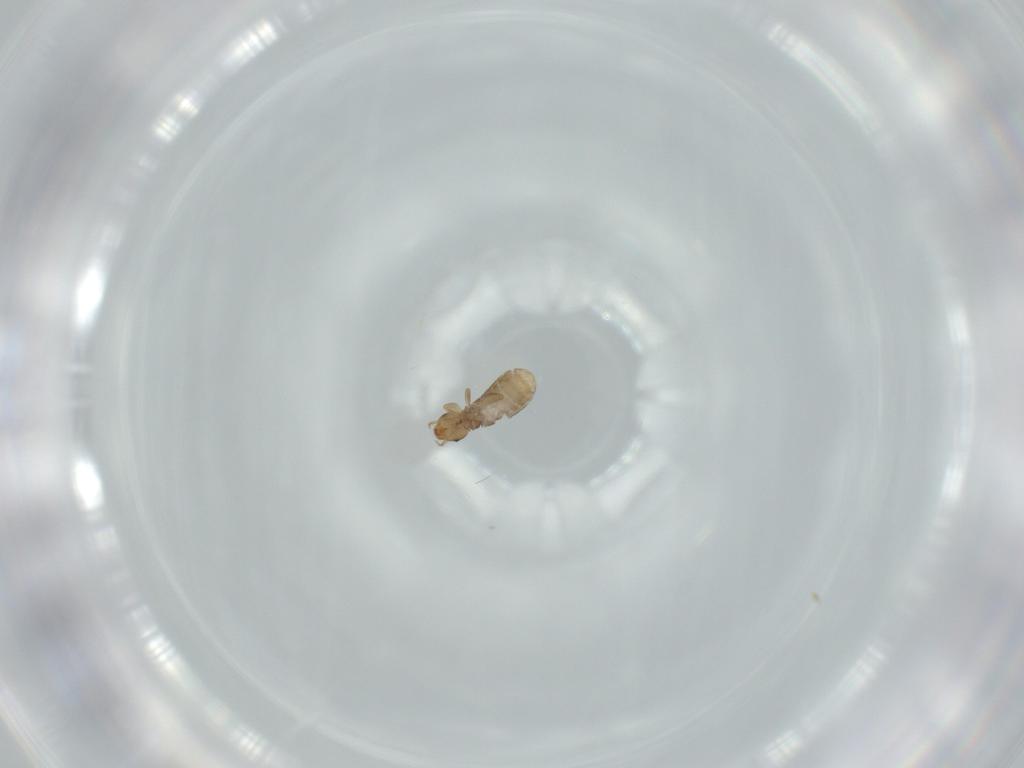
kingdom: Animalia
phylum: Arthropoda
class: Insecta
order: Psocodea
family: Liposcelididae
